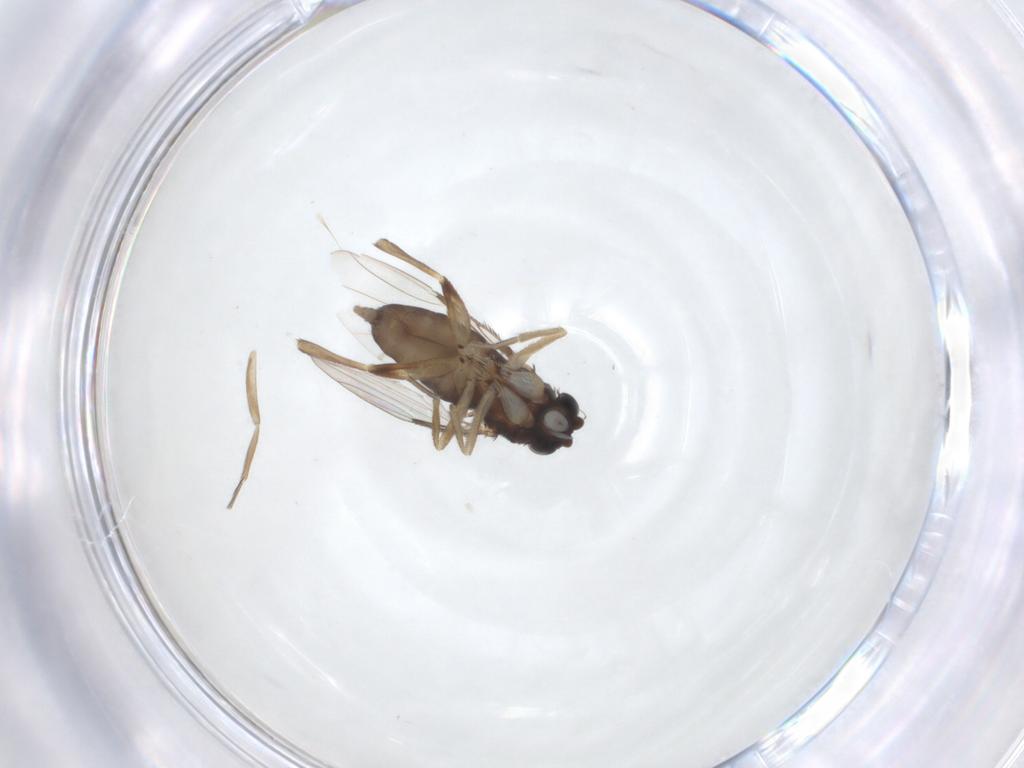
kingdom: Animalia
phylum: Arthropoda
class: Insecta
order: Diptera
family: Phoridae
